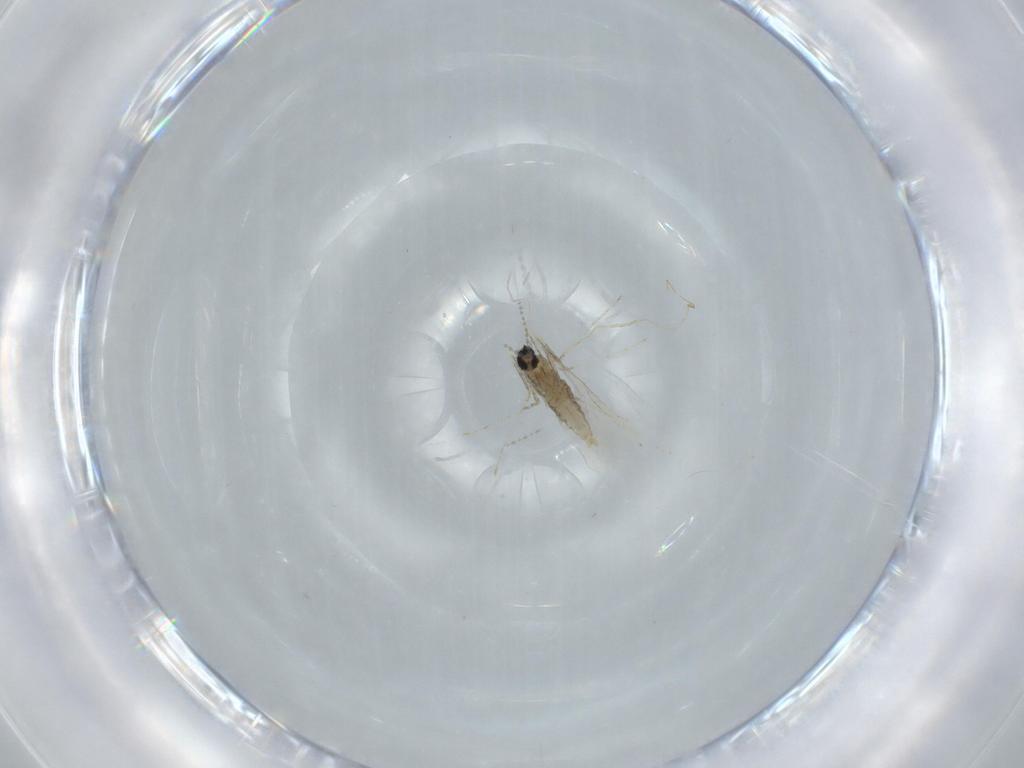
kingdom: Animalia
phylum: Arthropoda
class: Insecta
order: Diptera
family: Cecidomyiidae
